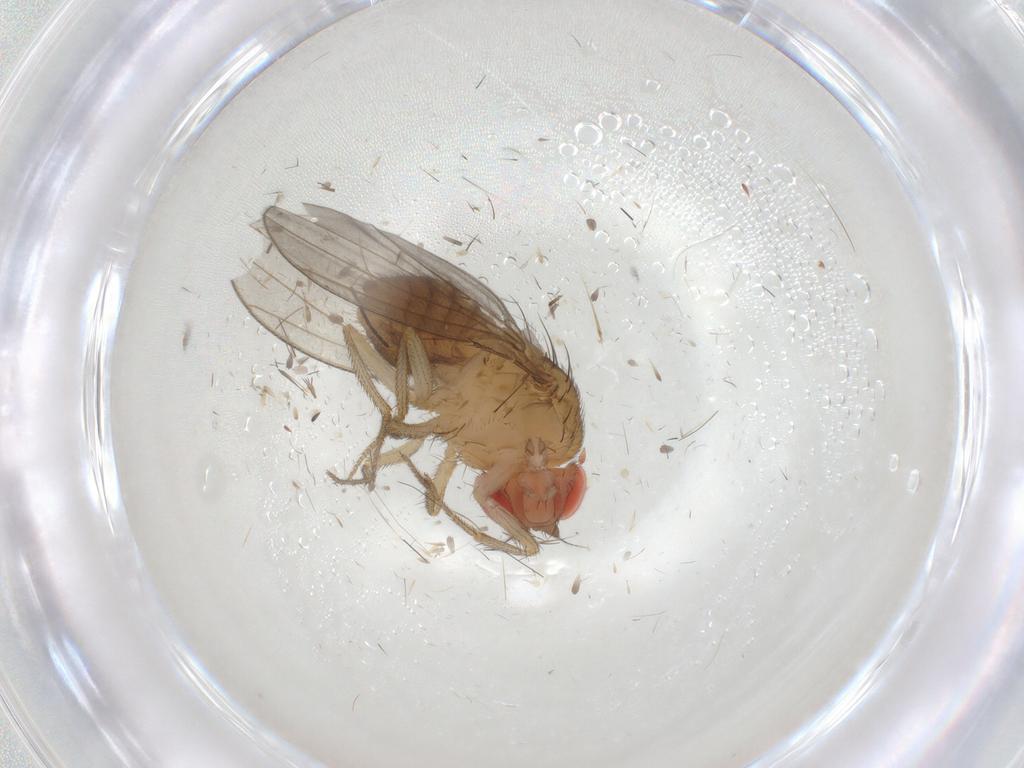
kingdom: Animalia
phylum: Arthropoda
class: Insecta
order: Diptera
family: Drosophilidae
